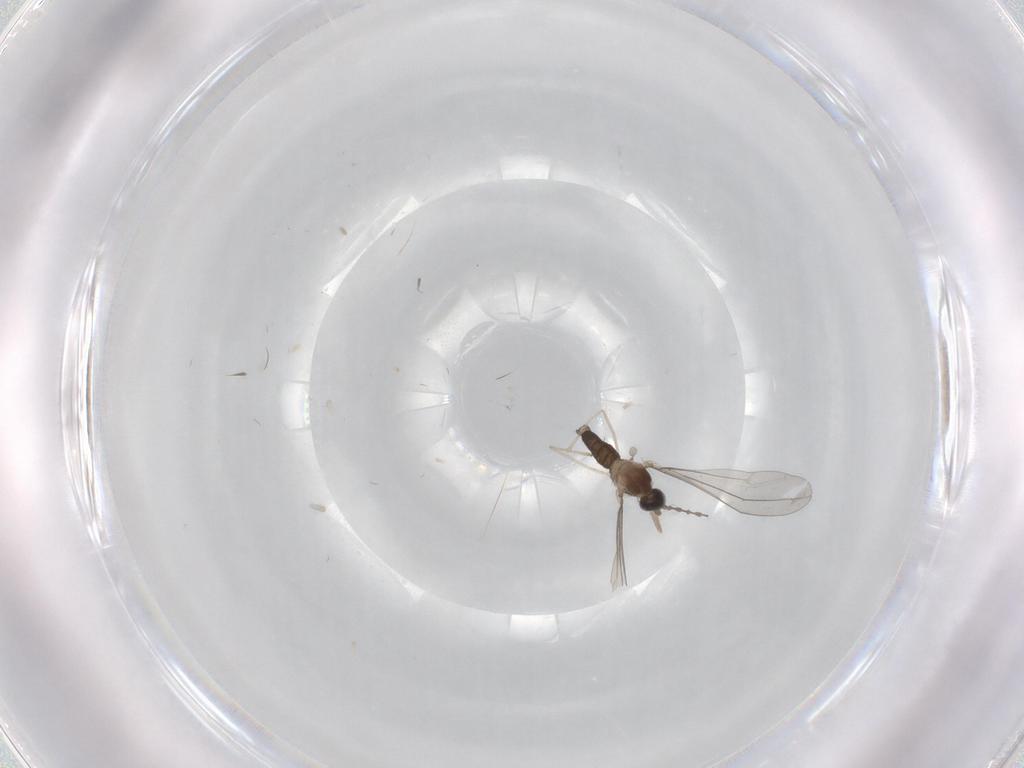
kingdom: Animalia
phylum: Arthropoda
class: Insecta
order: Diptera
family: Cecidomyiidae
